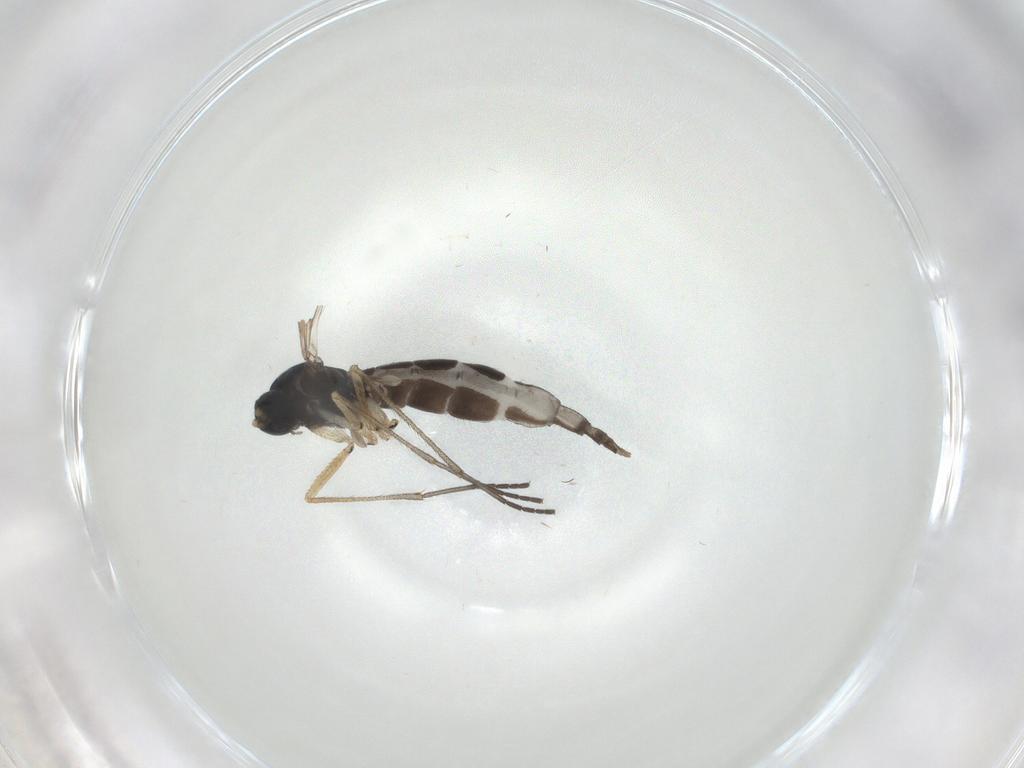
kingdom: Animalia
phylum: Arthropoda
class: Insecta
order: Diptera
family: Sciaridae
